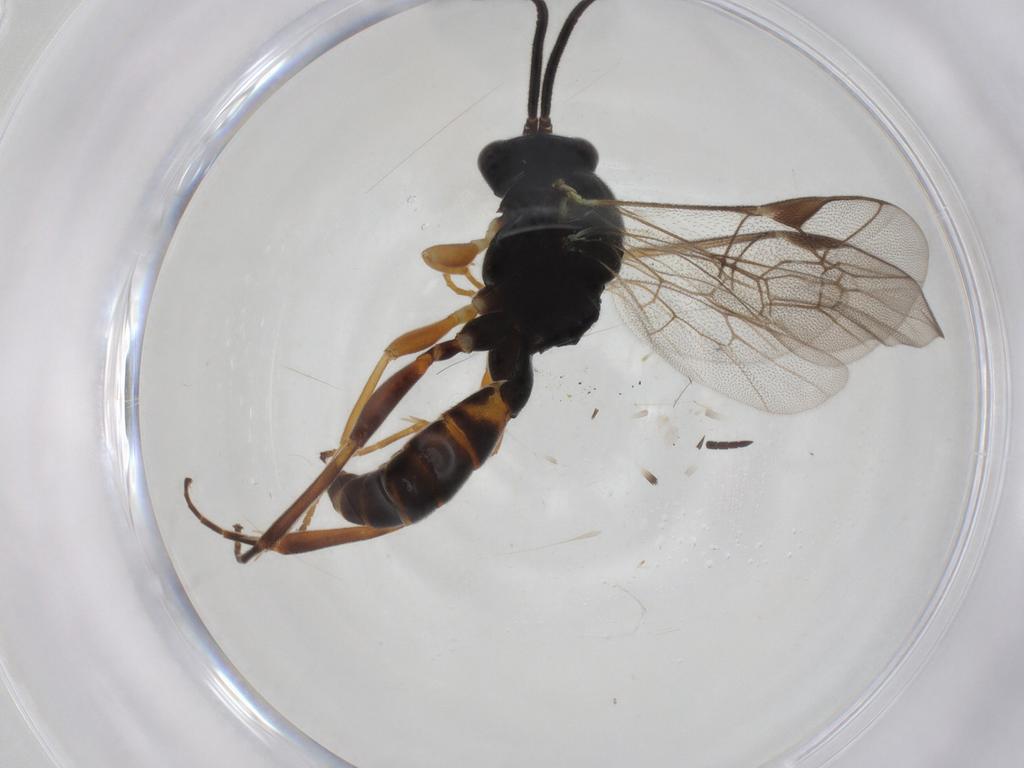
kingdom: Animalia
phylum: Arthropoda
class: Insecta
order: Hymenoptera
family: Ichneumonidae
